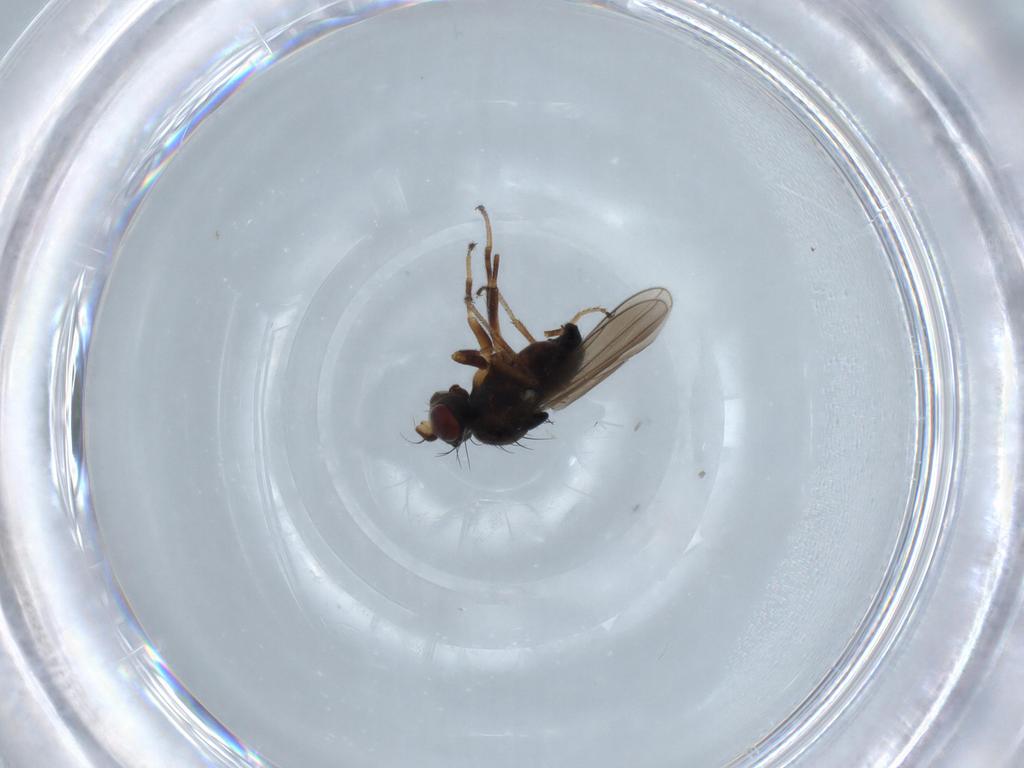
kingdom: Animalia
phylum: Arthropoda
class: Insecta
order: Diptera
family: Ephydridae
